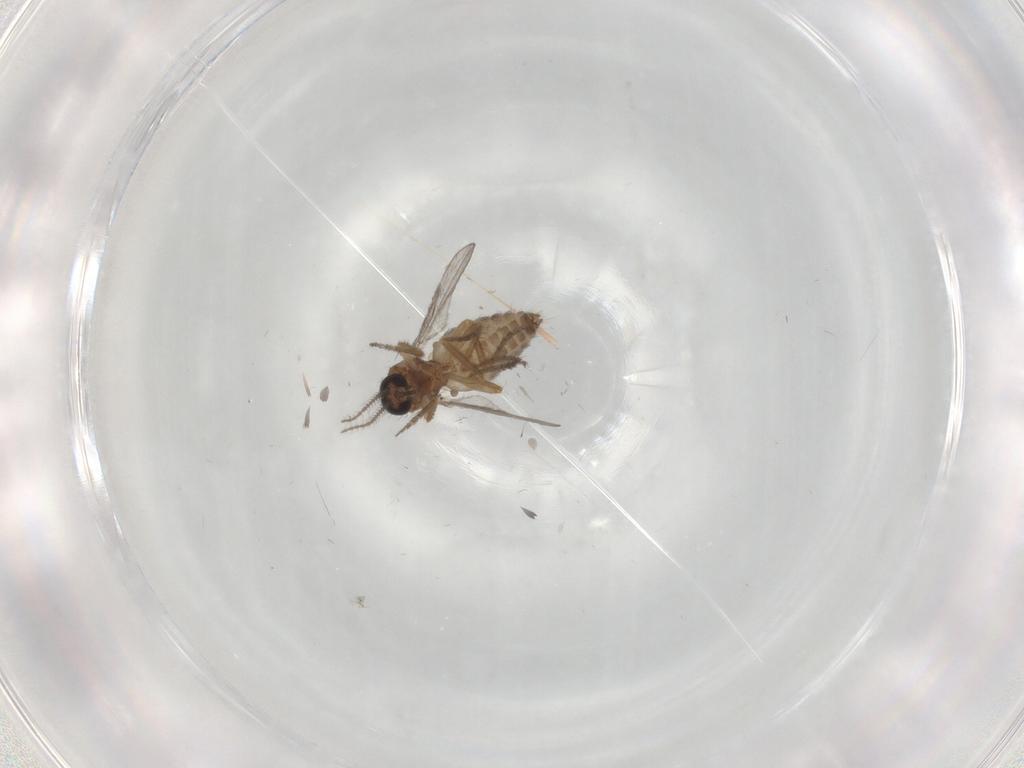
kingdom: Animalia
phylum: Arthropoda
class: Insecta
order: Diptera
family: Ceratopogonidae
